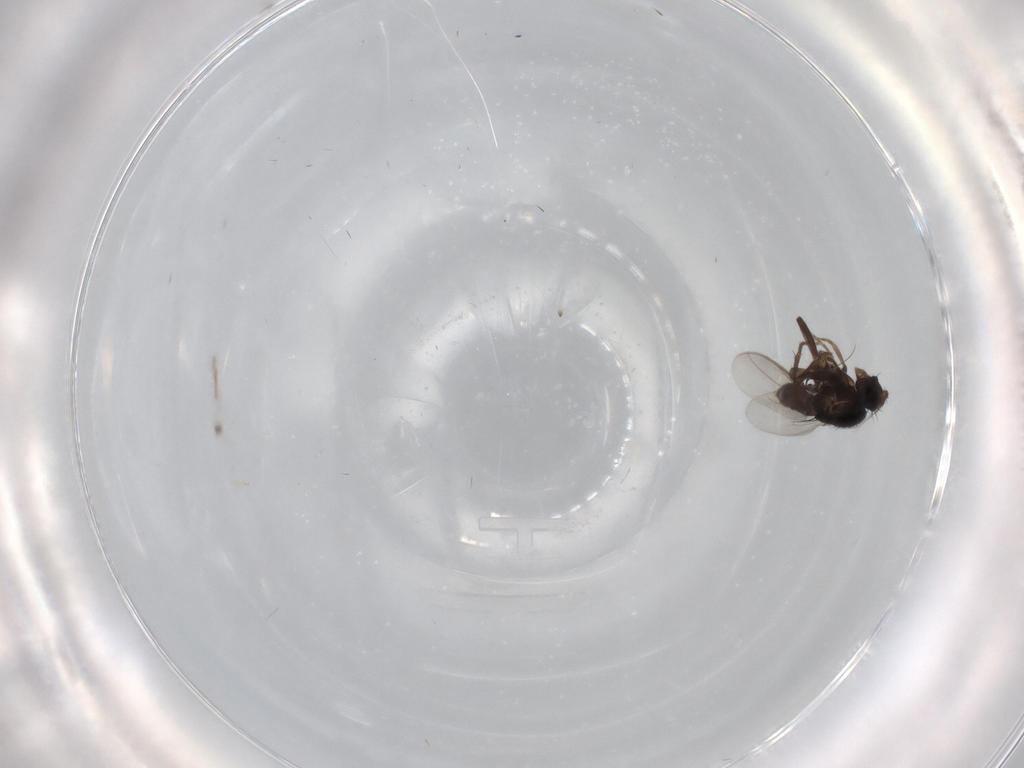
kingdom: Animalia
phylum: Arthropoda
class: Insecta
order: Diptera
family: Sphaeroceridae
